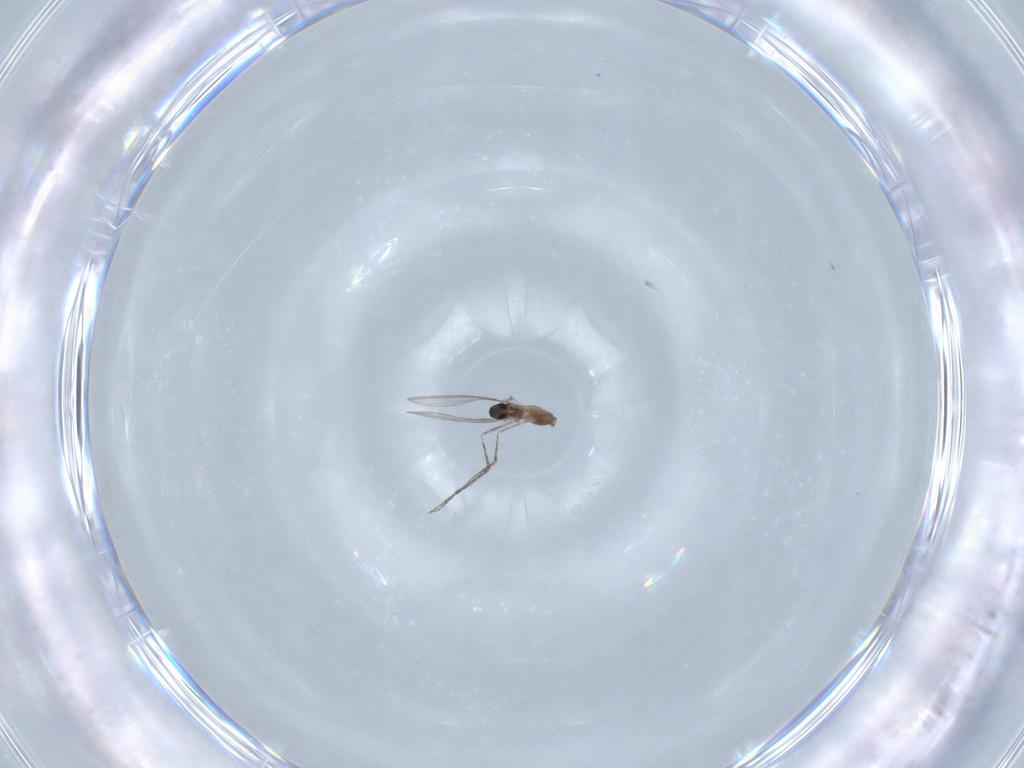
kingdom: Animalia
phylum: Arthropoda
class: Insecta
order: Diptera
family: Cecidomyiidae
